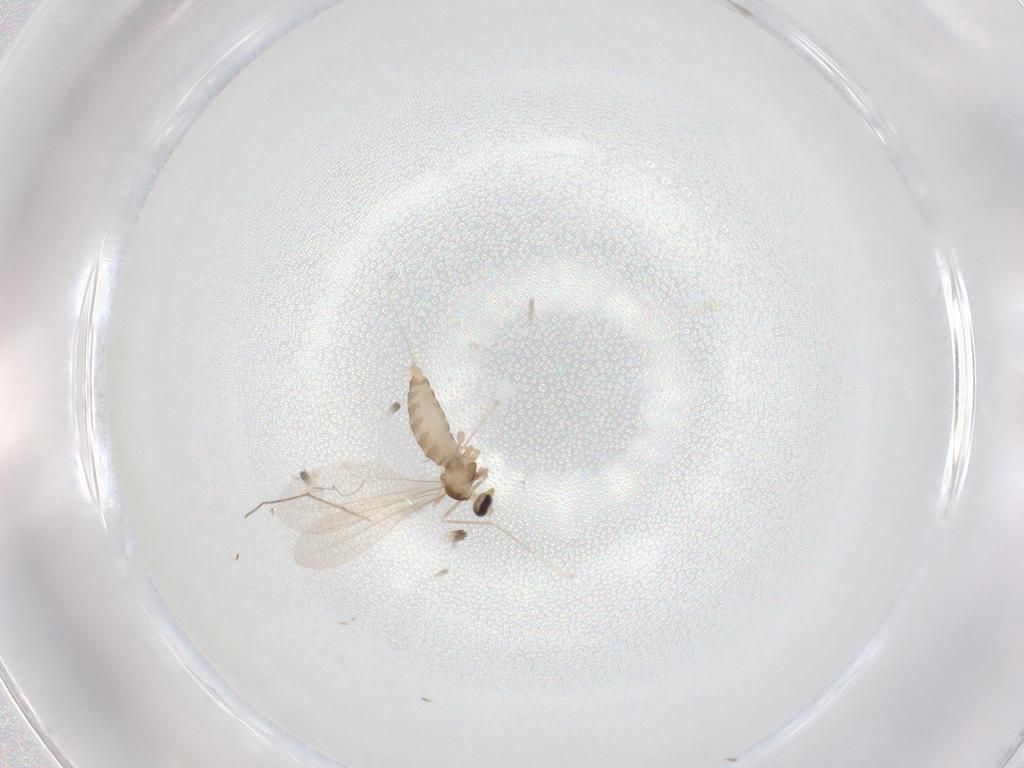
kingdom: Animalia
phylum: Arthropoda
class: Insecta
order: Diptera
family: Cecidomyiidae
